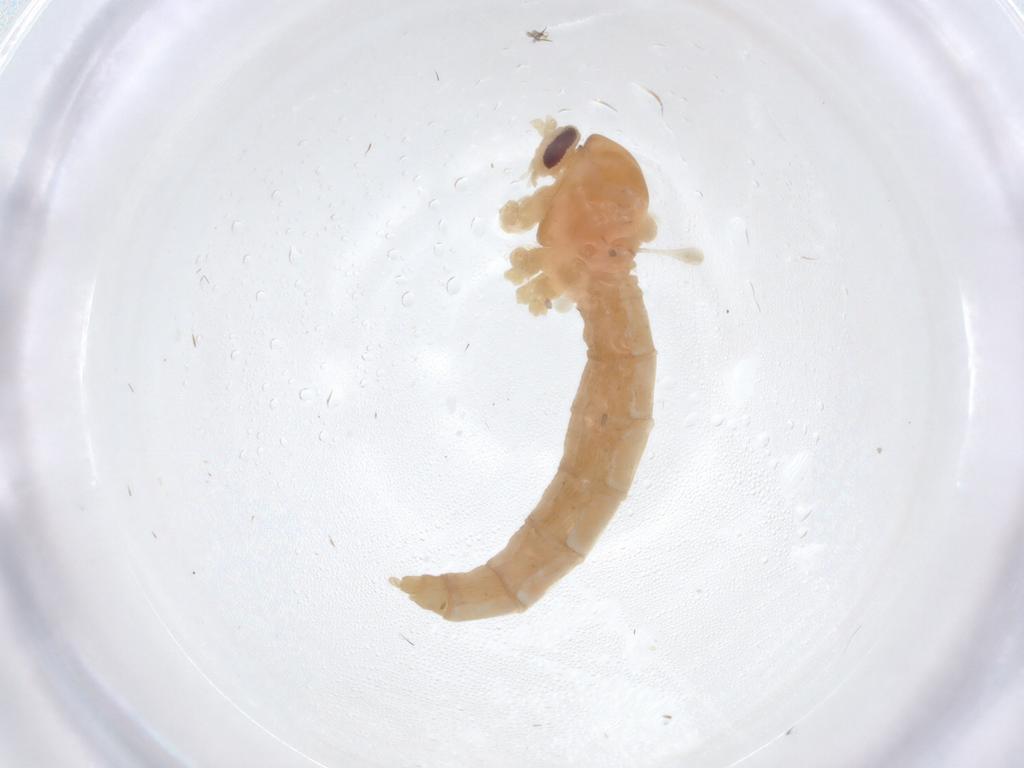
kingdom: Animalia
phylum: Arthropoda
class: Insecta
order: Diptera
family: Cecidomyiidae
